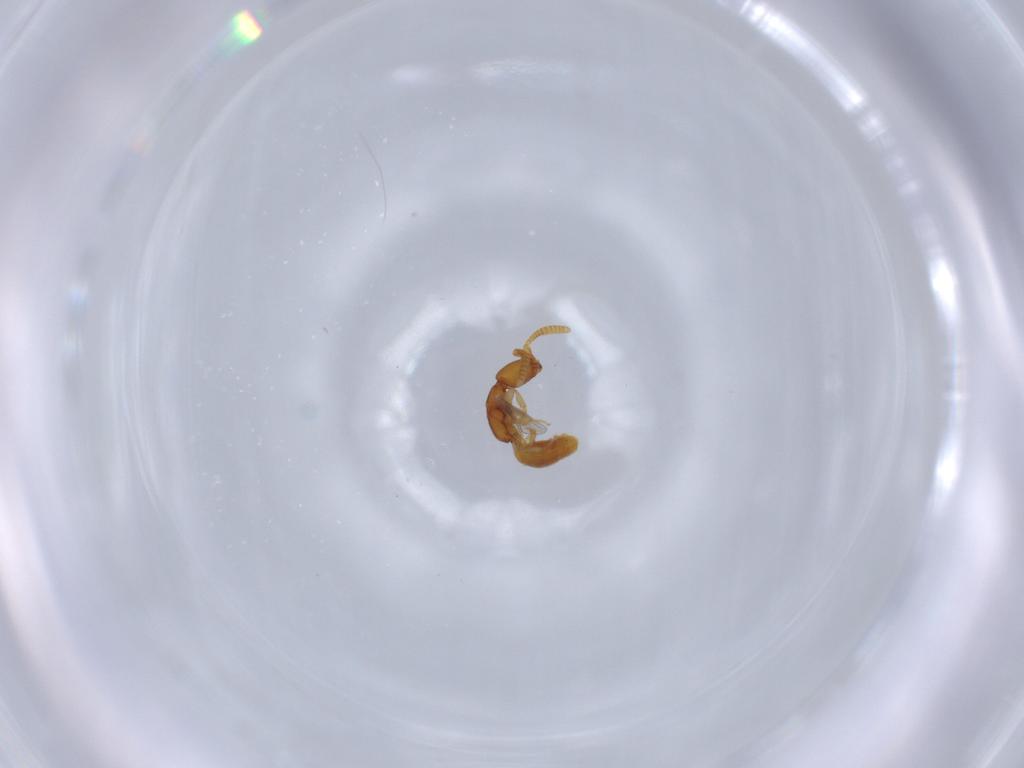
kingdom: Animalia
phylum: Arthropoda
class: Insecta
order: Hymenoptera
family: Bethylidae
